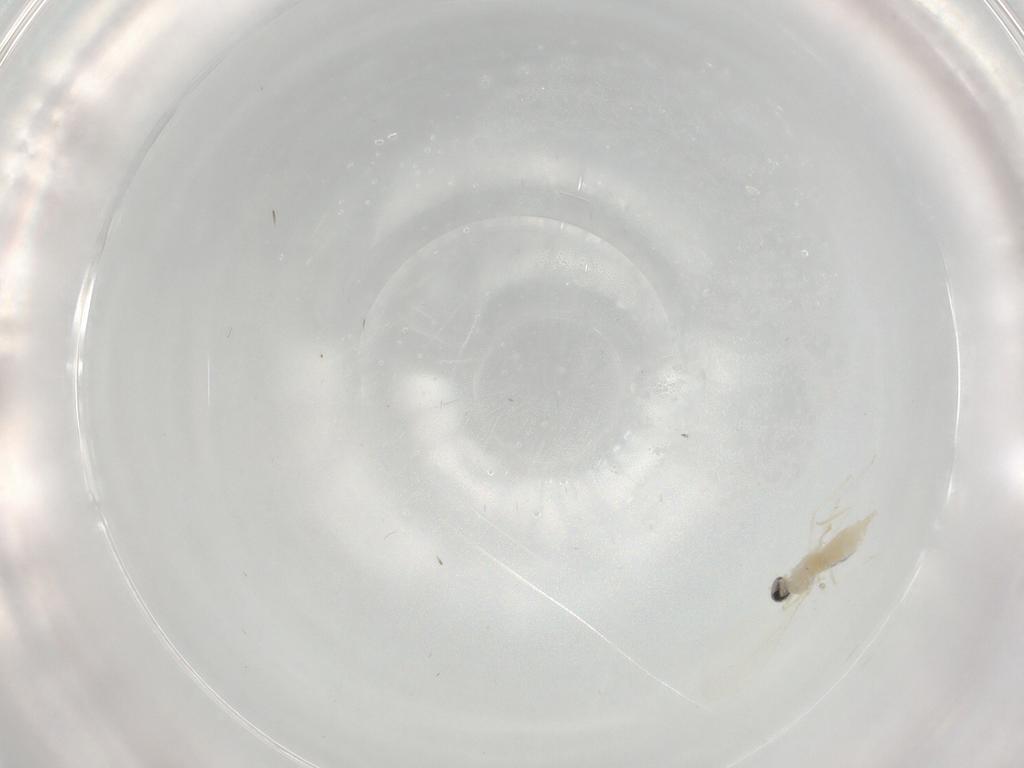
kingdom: Animalia
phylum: Arthropoda
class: Insecta
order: Diptera
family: Cecidomyiidae
